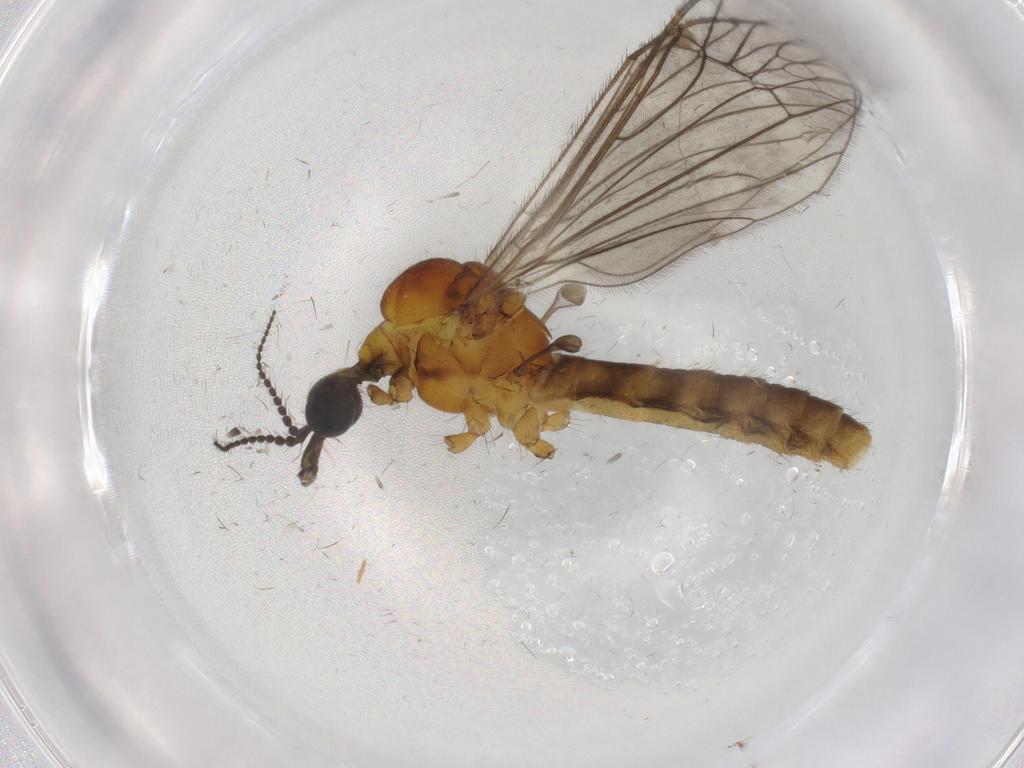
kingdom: Animalia
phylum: Arthropoda
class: Insecta
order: Diptera
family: Limoniidae
